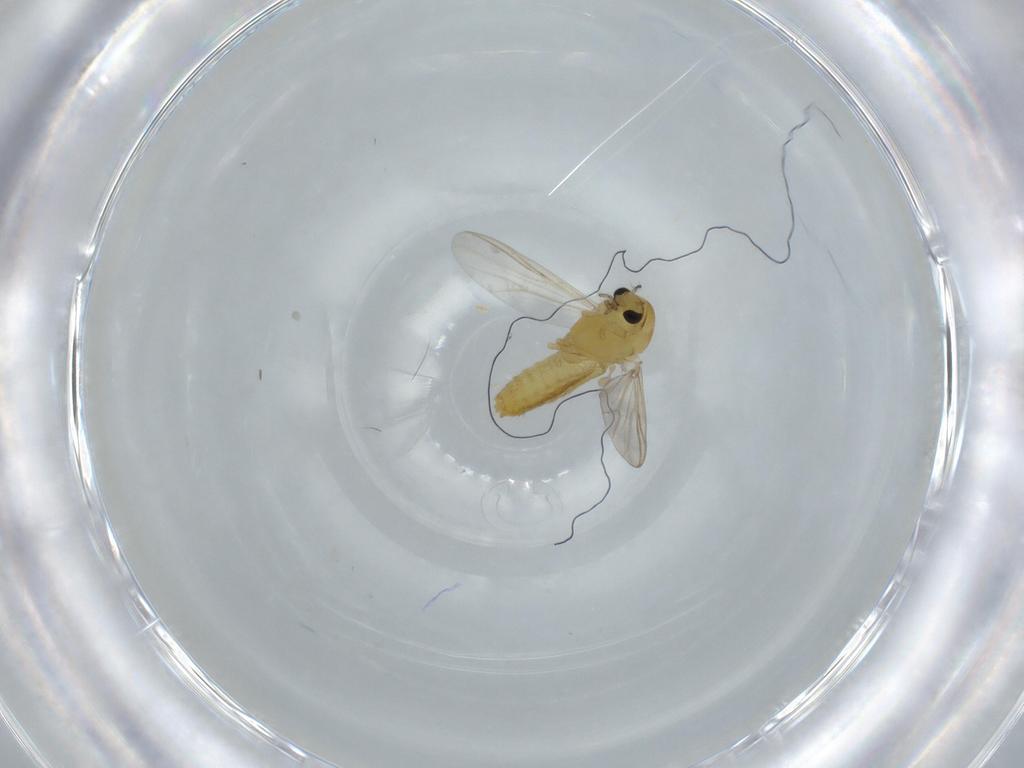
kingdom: Animalia
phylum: Arthropoda
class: Insecta
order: Diptera
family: Chironomidae
